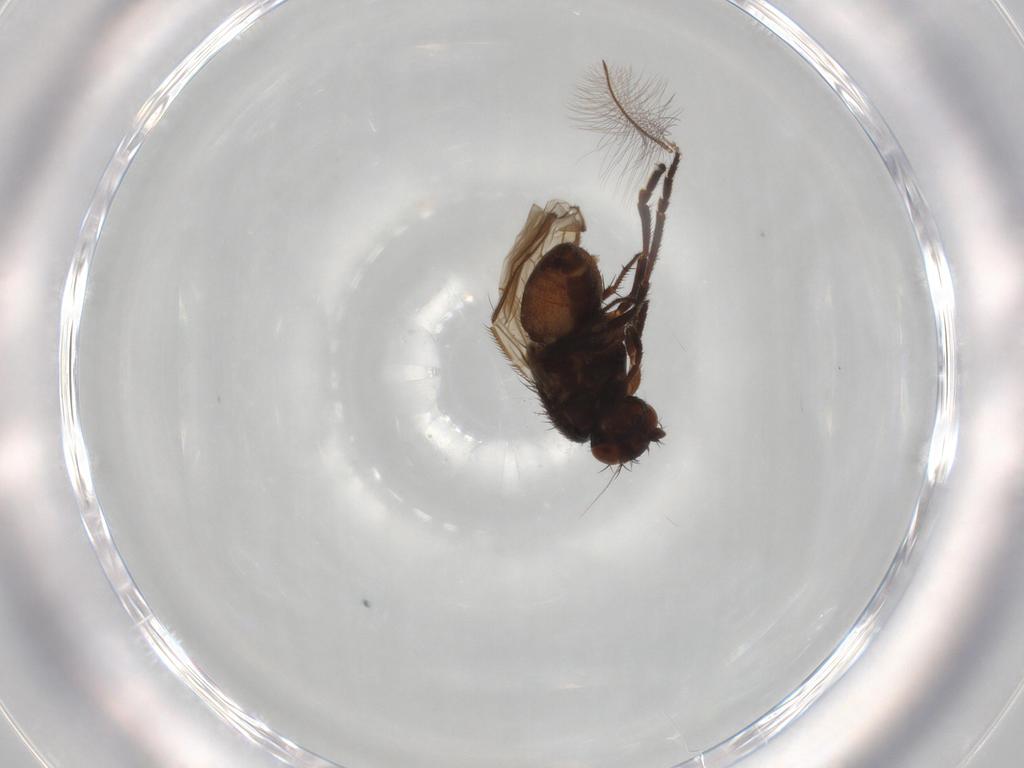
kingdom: Animalia
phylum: Arthropoda
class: Insecta
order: Diptera
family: Sphaeroceridae
